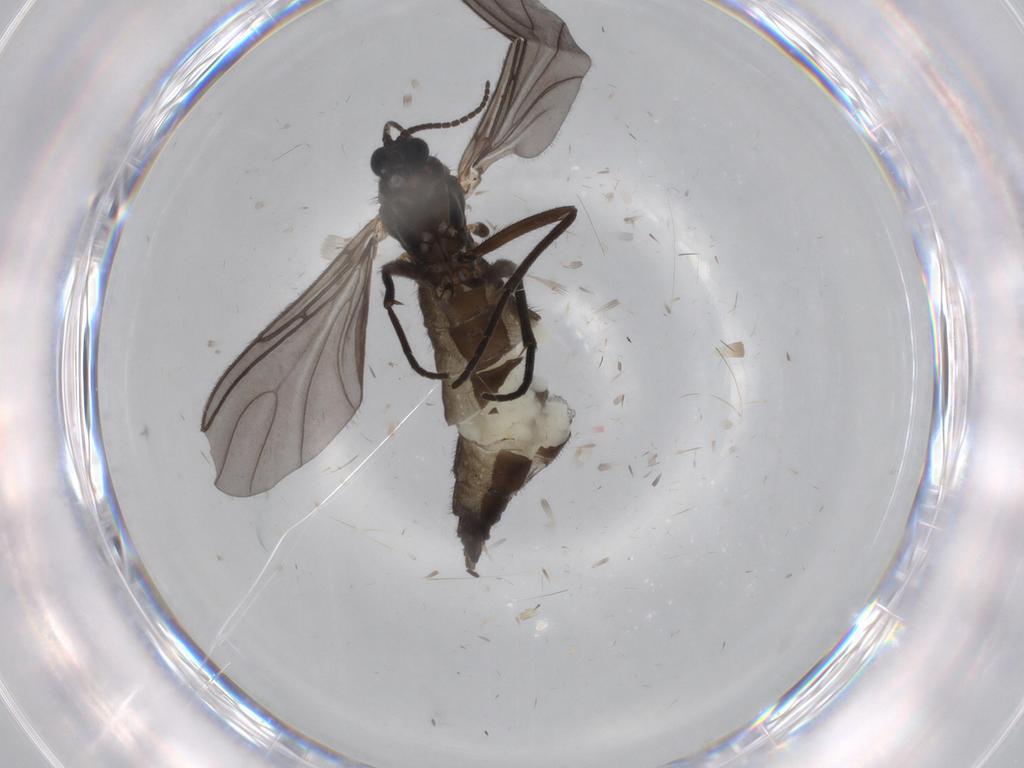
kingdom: Animalia
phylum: Arthropoda
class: Insecta
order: Diptera
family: Sciaridae
